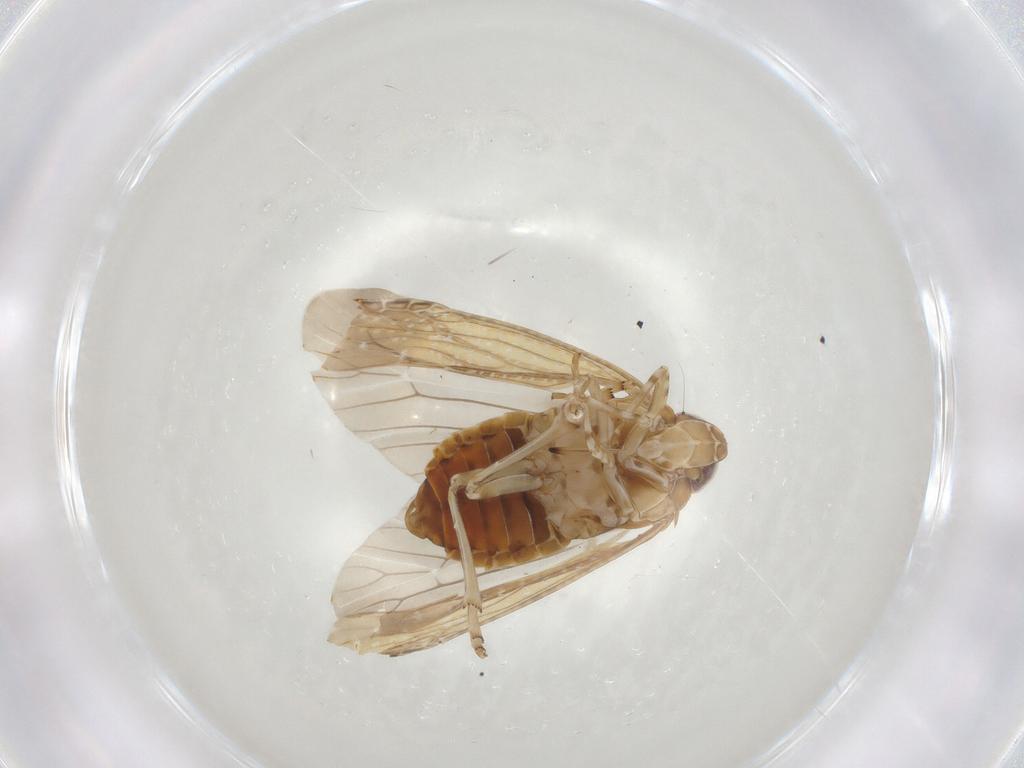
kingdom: Animalia
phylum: Arthropoda
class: Insecta
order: Hemiptera
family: Achilidae
